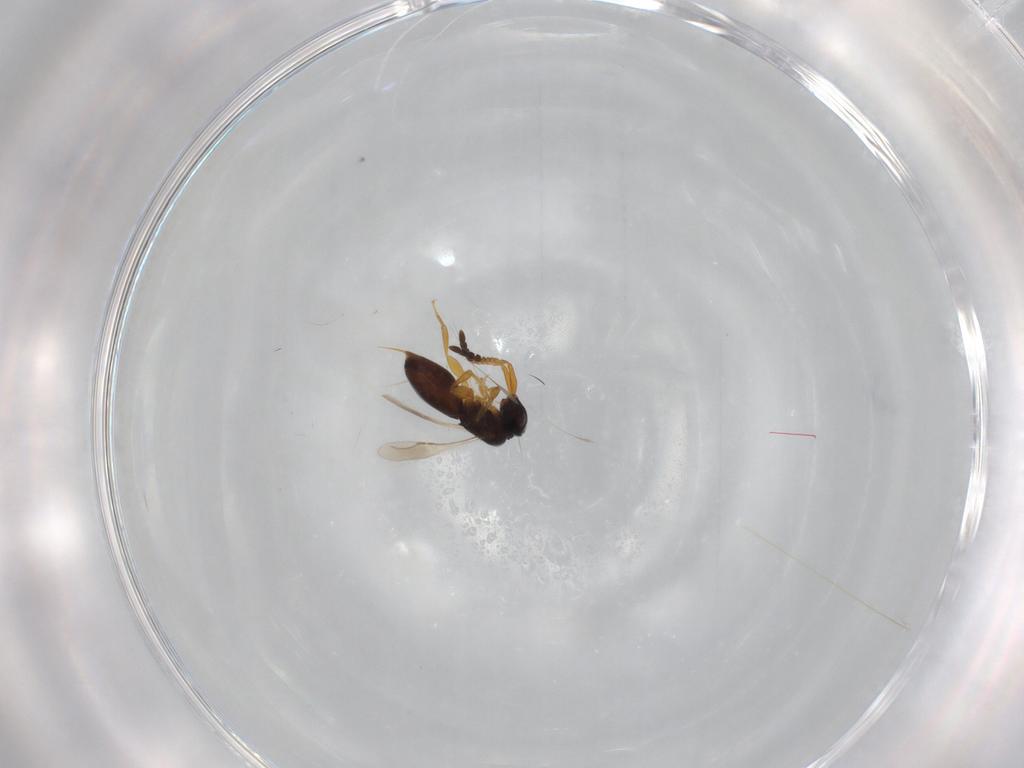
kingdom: Animalia
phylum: Arthropoda
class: Insecta
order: Hymenoptera
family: Ceraphronidae
